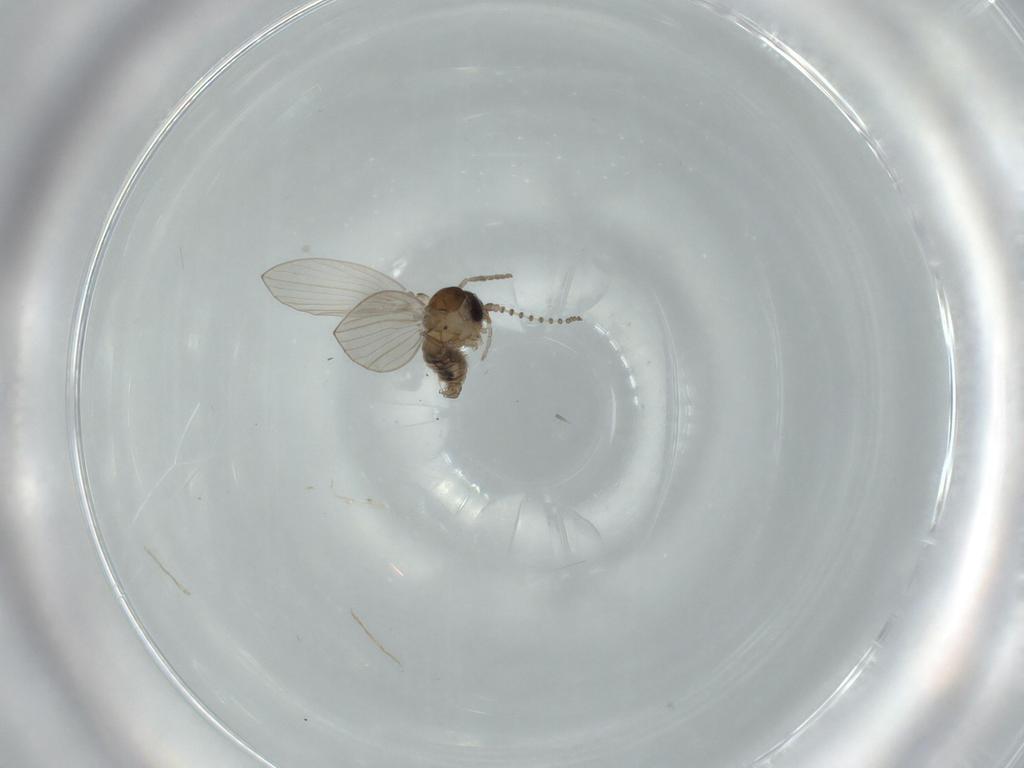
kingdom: Animalia
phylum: Arthropoda
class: Insecta
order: Diptera
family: Psychodidae
